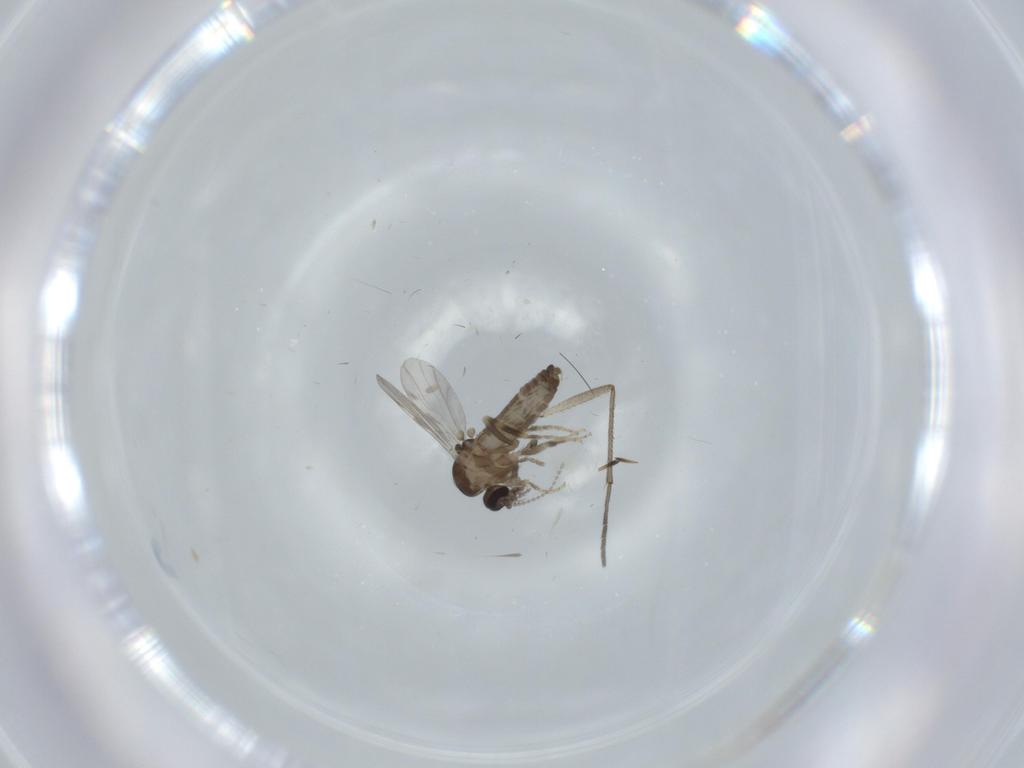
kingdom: Animalia
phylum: Arthropoda
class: Insecta
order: Diptera
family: Ceratopogonidae
